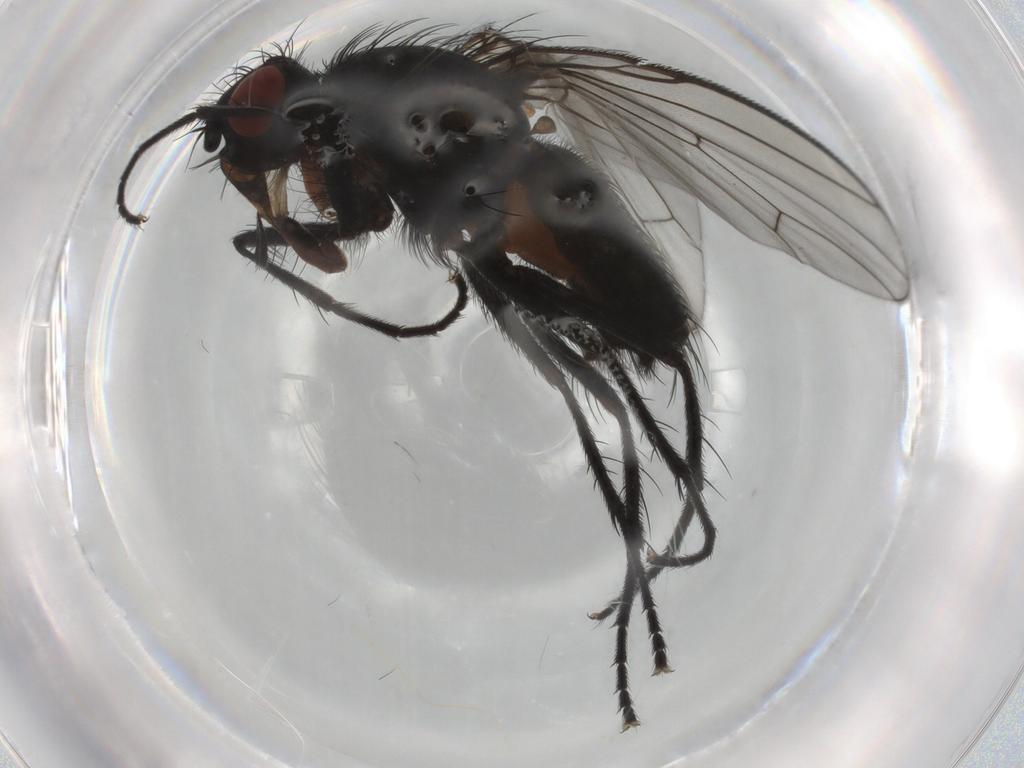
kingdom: Animalia
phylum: Arthropoda
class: Insecta
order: Diptera
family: Anthomyiidae
